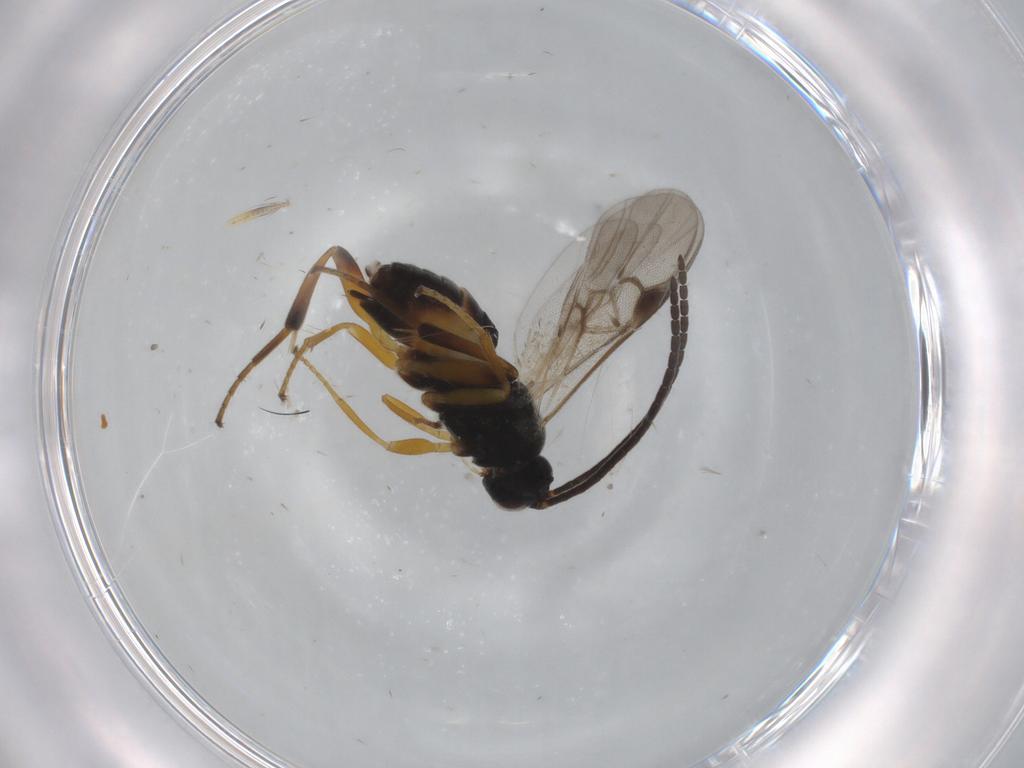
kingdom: Animalia
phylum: Arthropoda
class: Insecta
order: Hymenoptera
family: Braconidae
